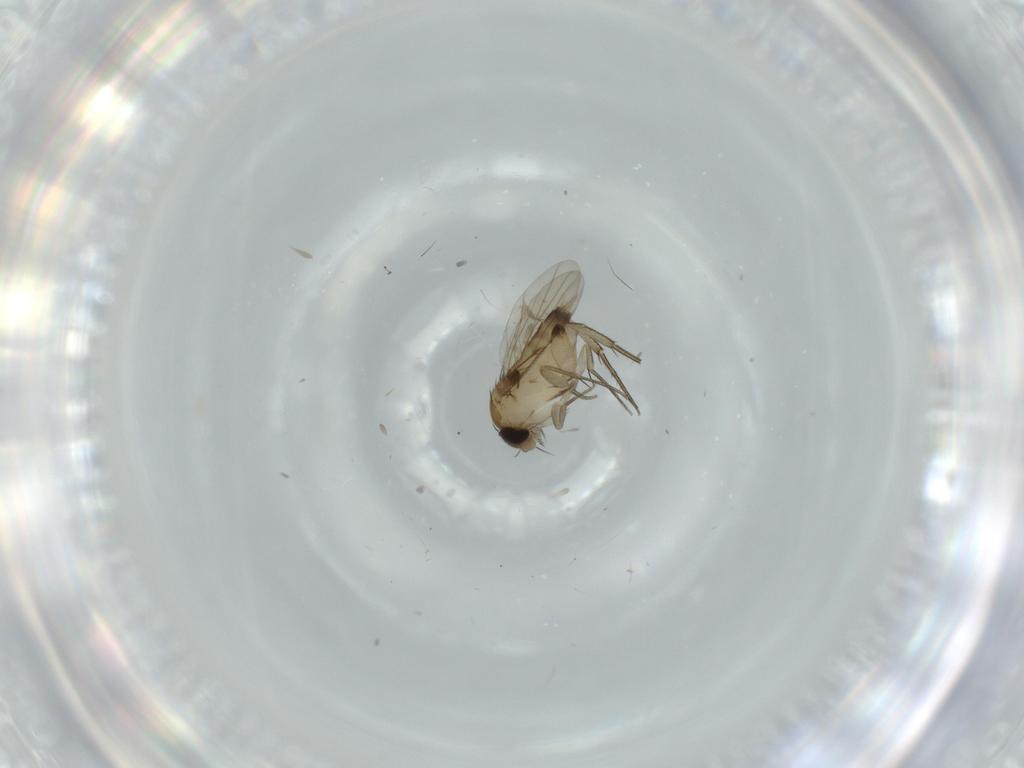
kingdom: Animalia
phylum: Arthropoda
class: Insecta
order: Diptera
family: Phoridae
